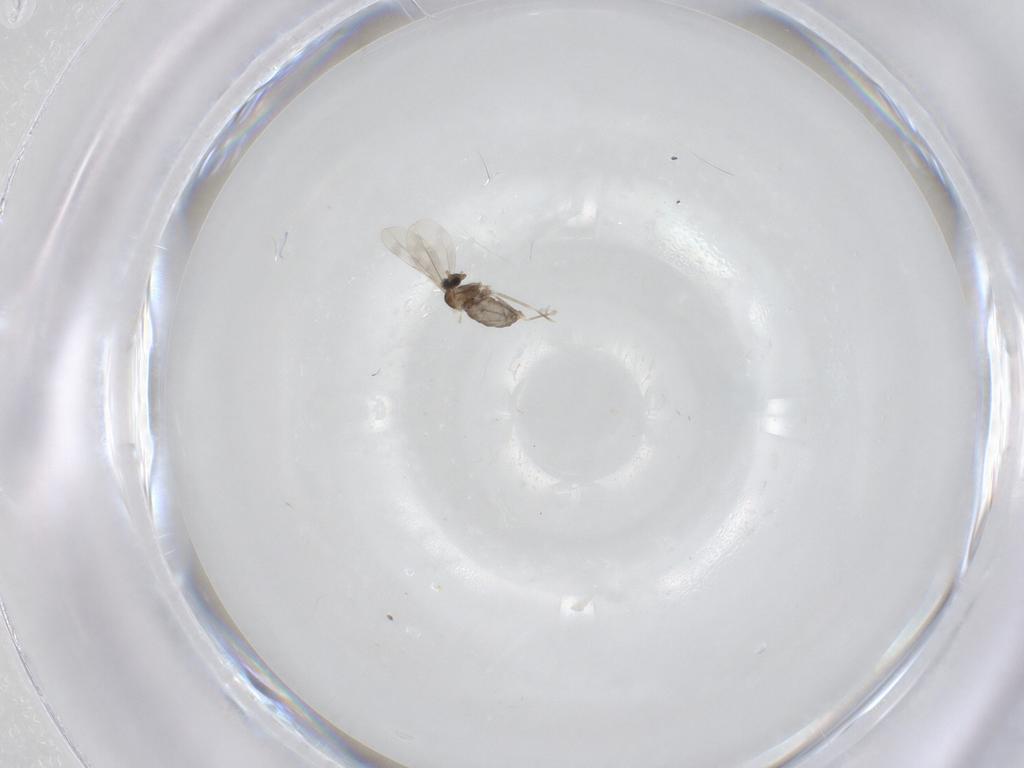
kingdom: Animalia
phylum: Arthropoda
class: Insecta
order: Diptera
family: Cecidomyiidae
